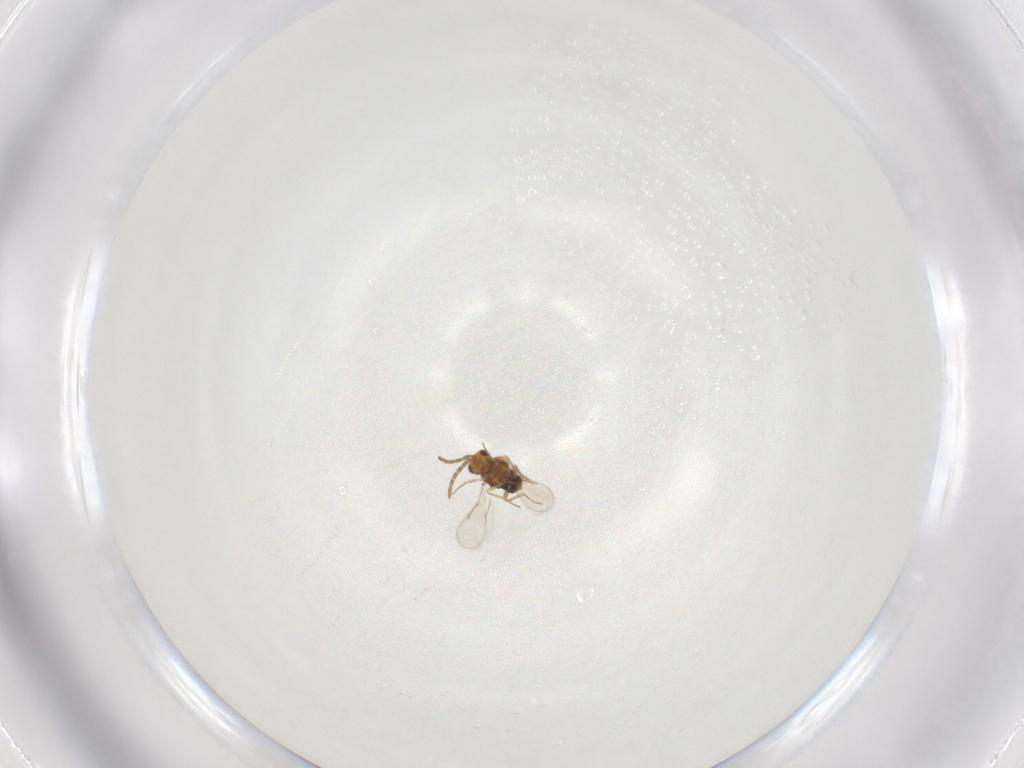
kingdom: Animalia
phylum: Arthropoda
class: Insecta
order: Hymenoptera
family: Aphelinidae
